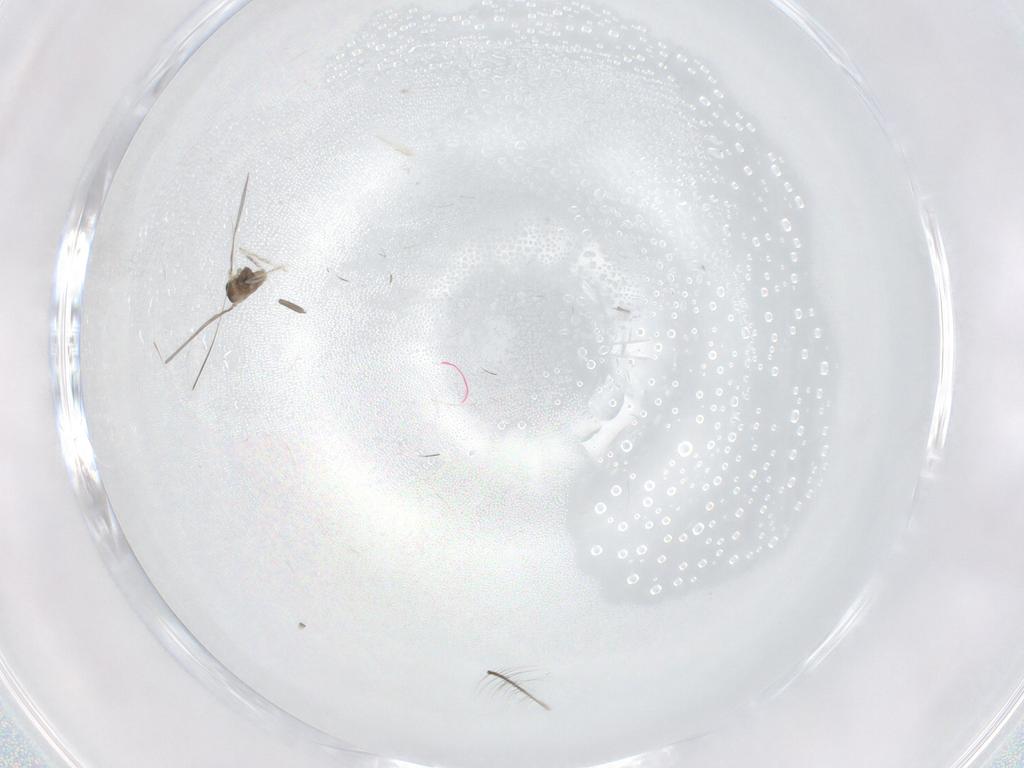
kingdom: Animalia
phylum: Arthropoda
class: Insecta
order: Diptera
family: Cecidomyiidae
